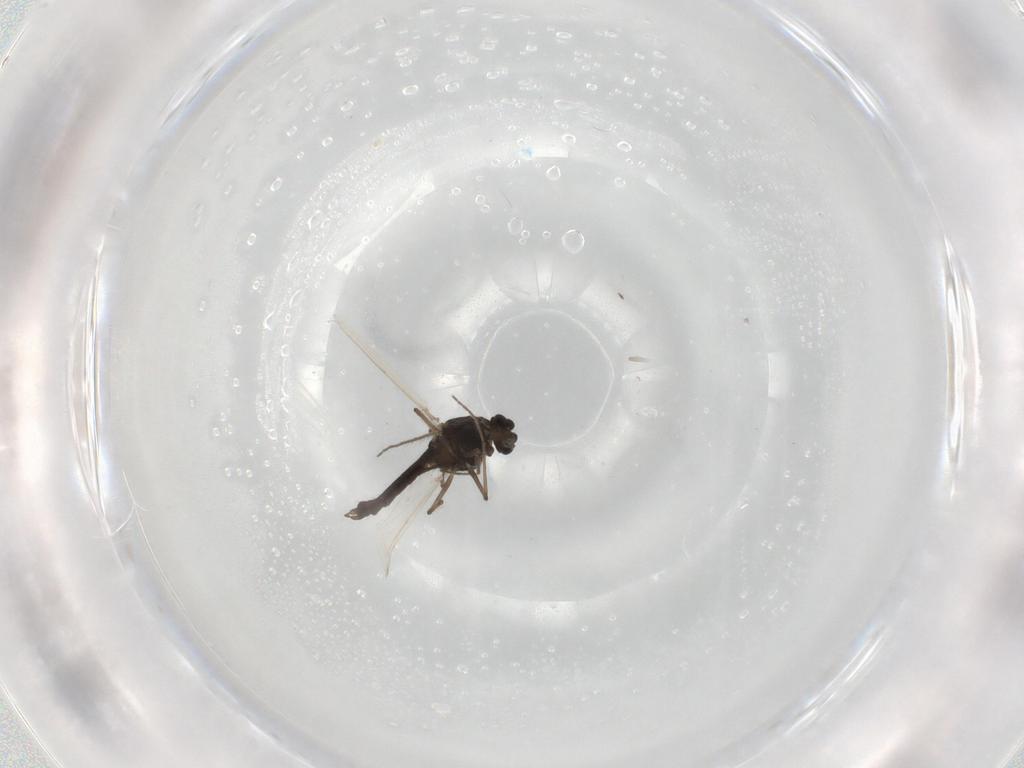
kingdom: Animalia
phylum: Arthropoda
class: Insecta
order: Diptera
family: Chironomidae
